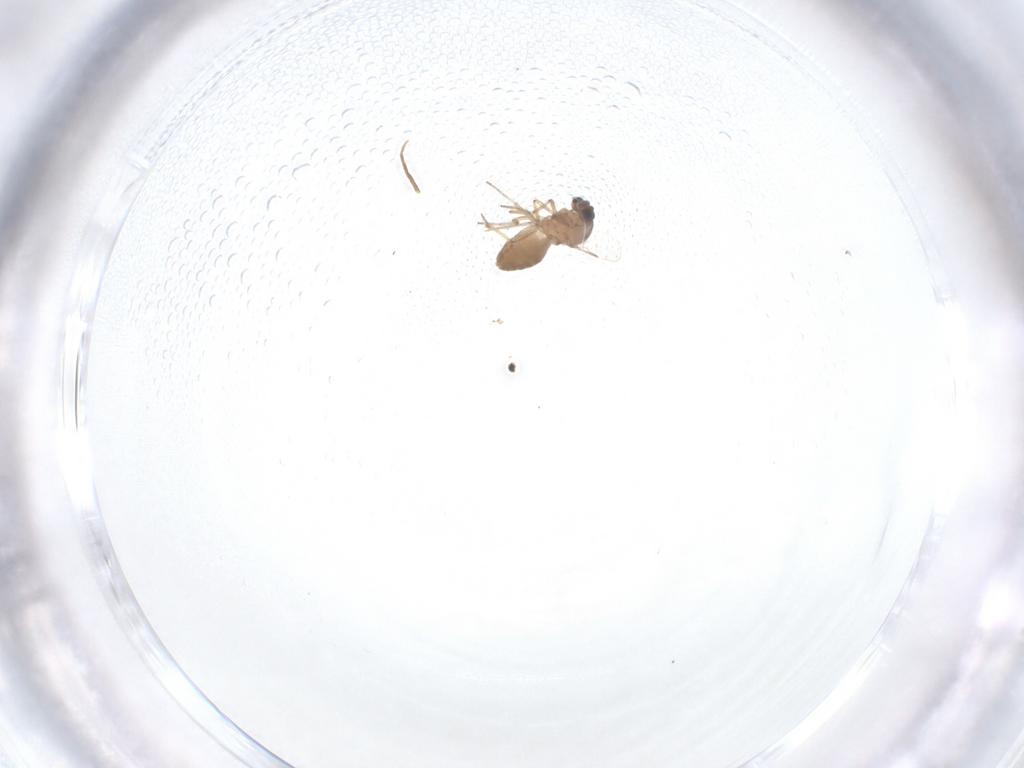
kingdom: Animalia
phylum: Arthropoda
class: Insecta
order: Diptera
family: Ceratopogonidae
